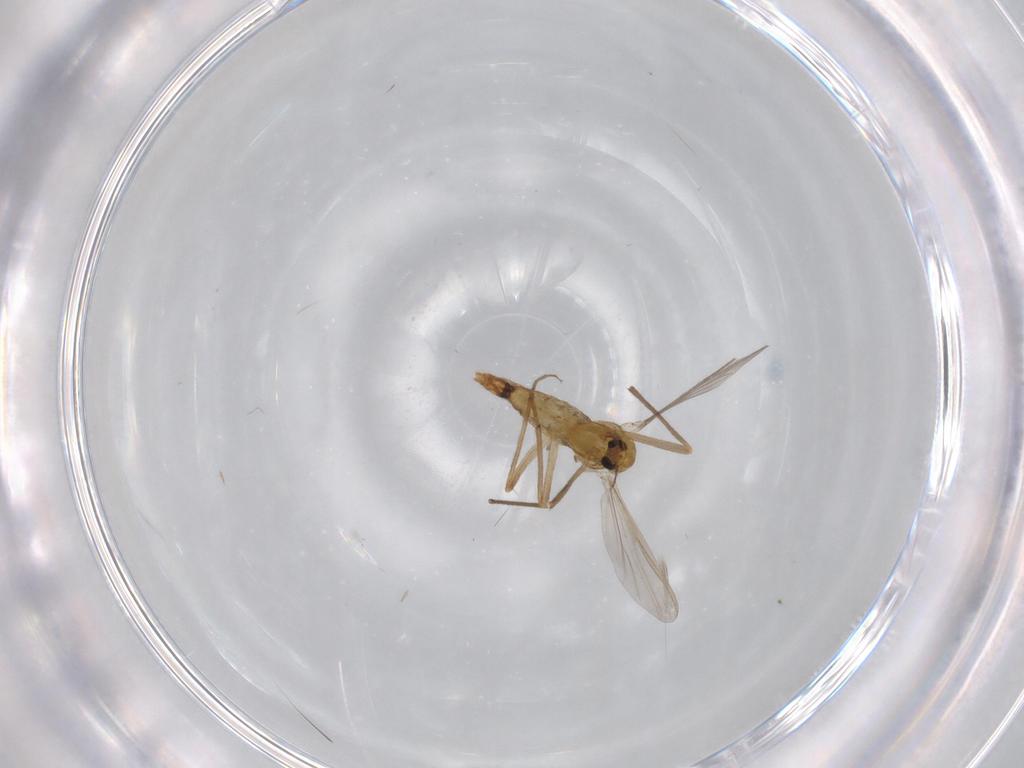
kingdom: Animalia
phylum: Arthropoda
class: Insecta
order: Diptera
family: Chironomidae
